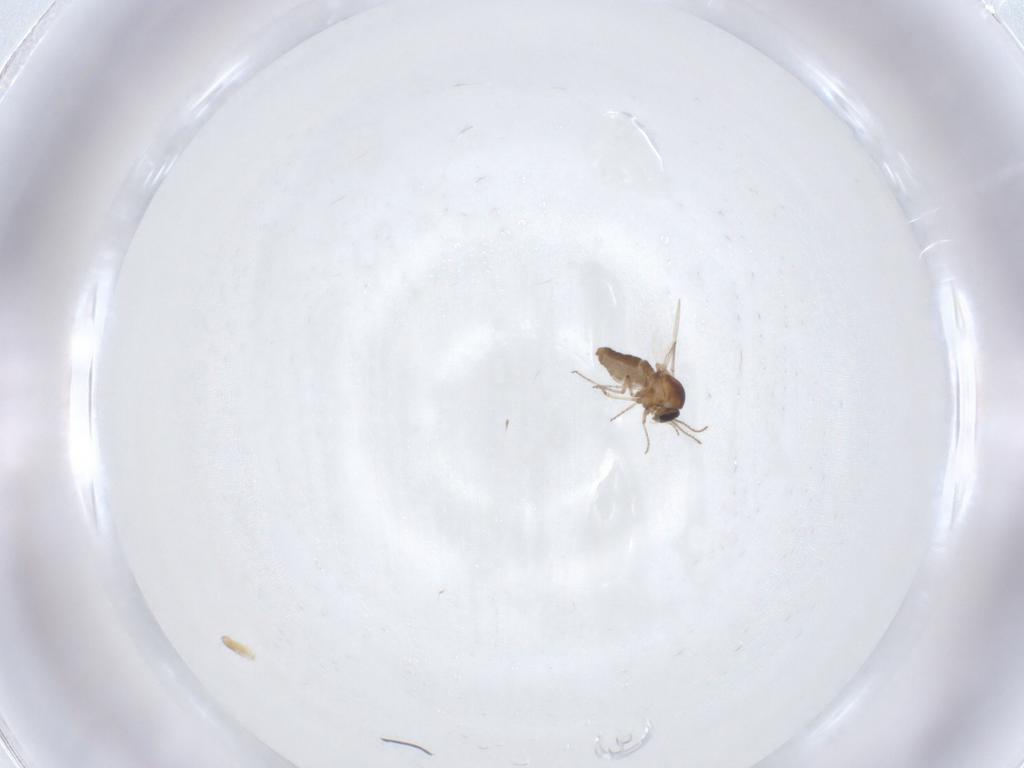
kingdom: Animalia
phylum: Arthropoda
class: Insecta
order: Diptera
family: Ceratopogonidae
